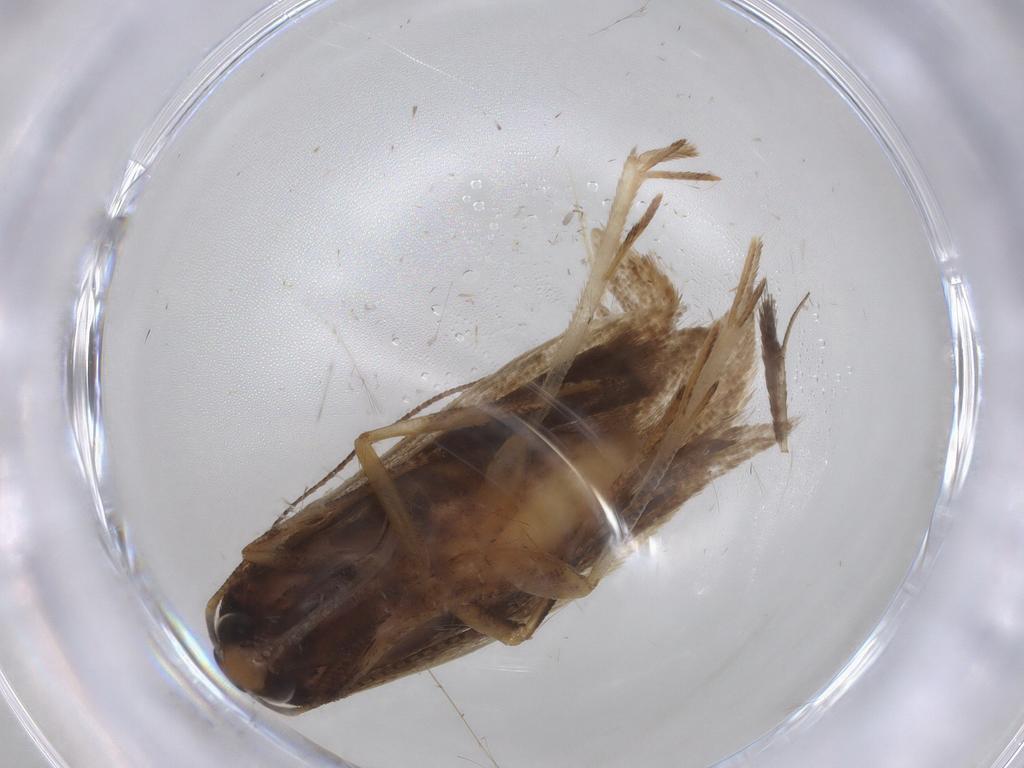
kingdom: Animalia
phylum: Arthropoda
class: Insecta
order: Lepidoptera
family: Gelechiidae
